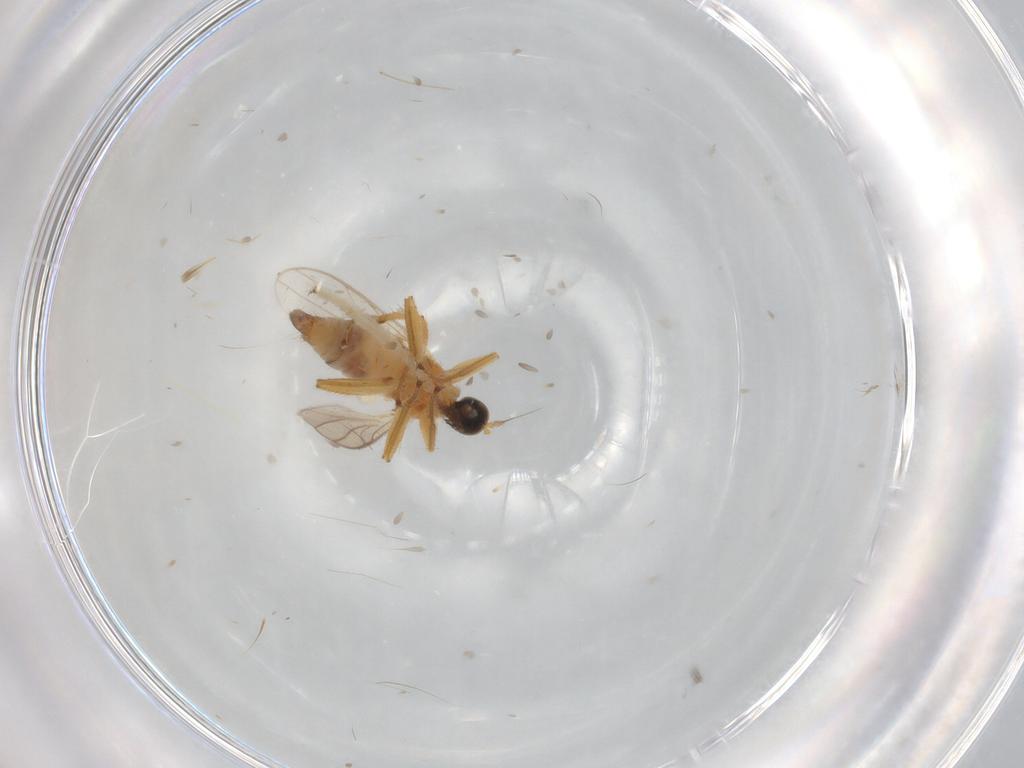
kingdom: Animalia
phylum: Arthropoda
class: Insecta
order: Diptera
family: Hybotidae
